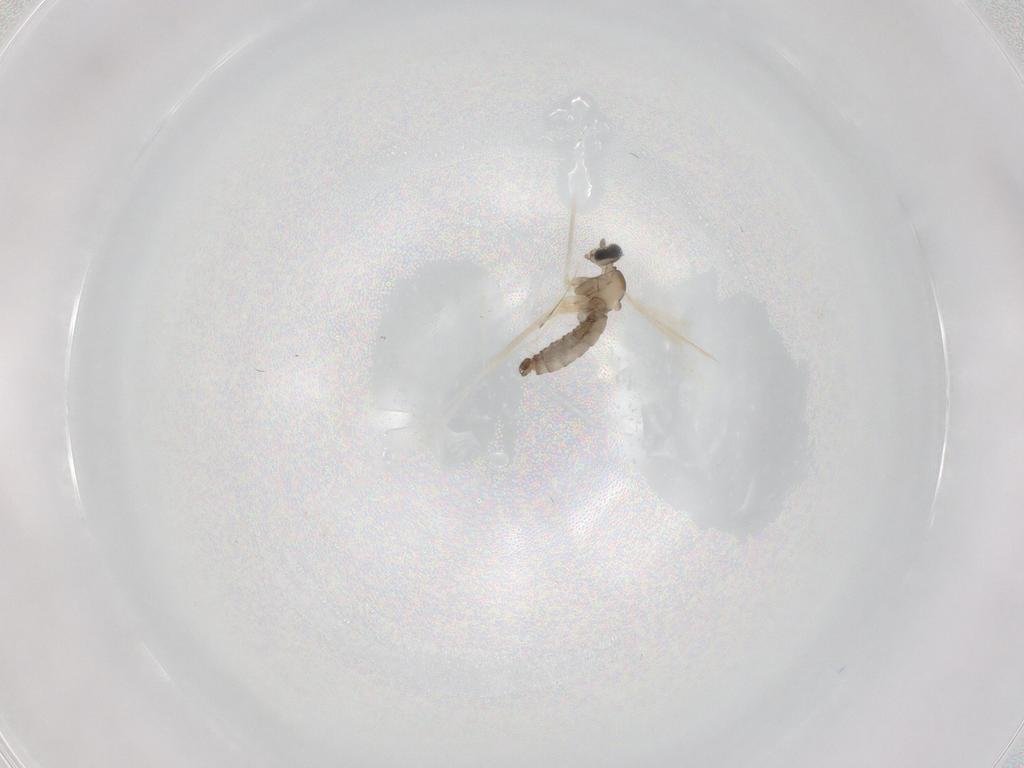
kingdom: Animalia
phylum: Arthropoda
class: Insecta
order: Diptera
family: Cecidomyiidae
